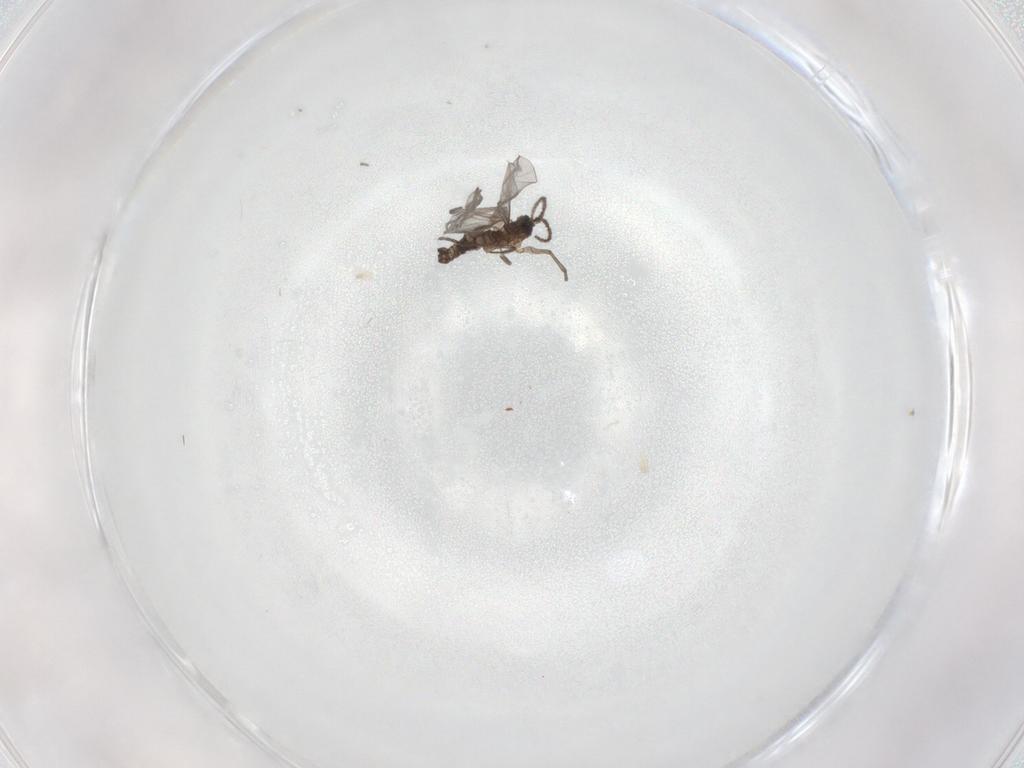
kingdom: Animalia
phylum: Arthropoda
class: Insecta
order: Diptera
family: Sciaridae
